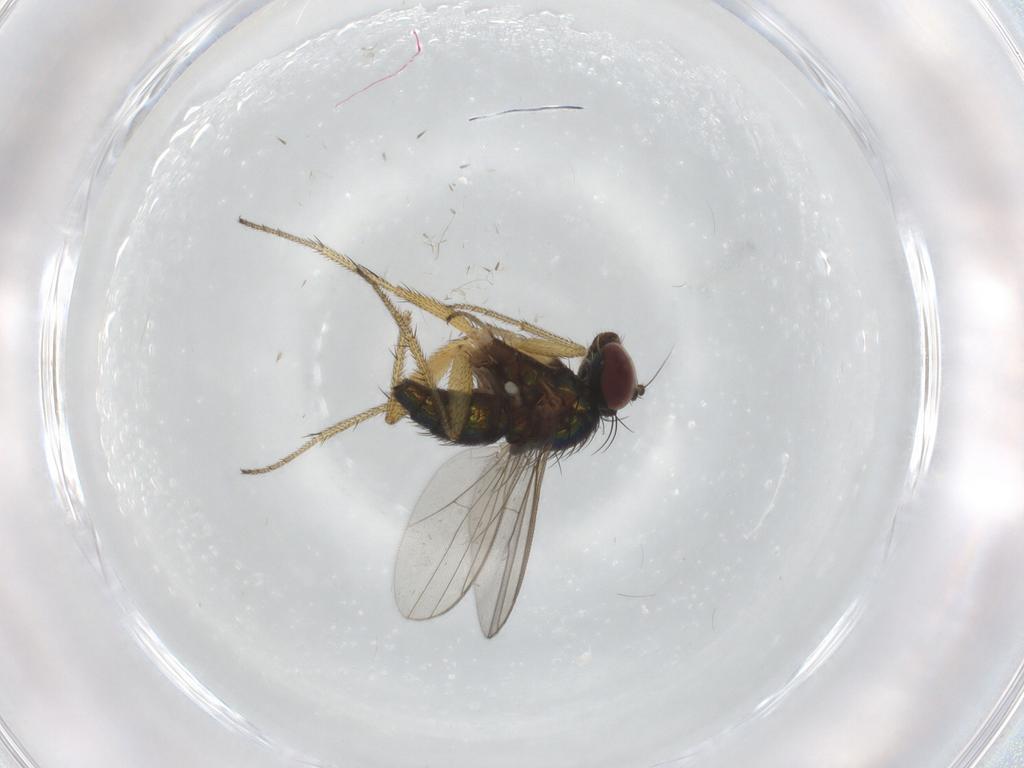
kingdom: Animalia
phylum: Arthropoda
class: Insecta
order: Diptera
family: Dolichopodidae
